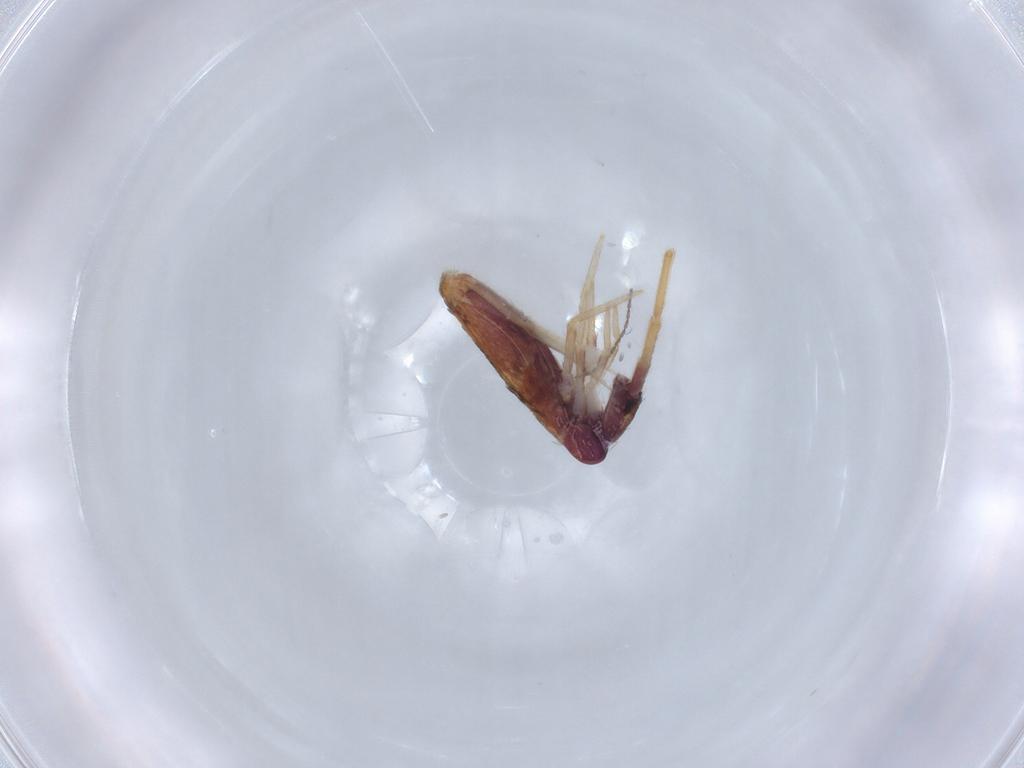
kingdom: Animalia
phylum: Arthropoda
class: Collembola
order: Entomobryomorpha
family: Entomobryidae
